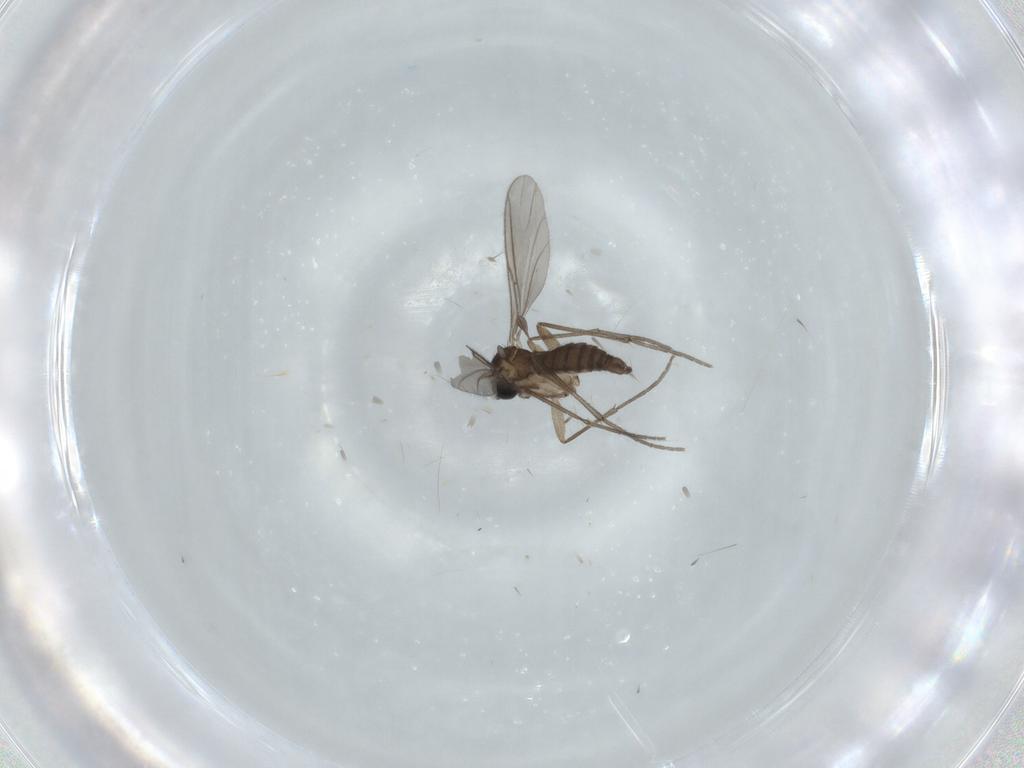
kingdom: Animalia
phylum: Arthropoda
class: Insecta
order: Diptera
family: Sciaridae
